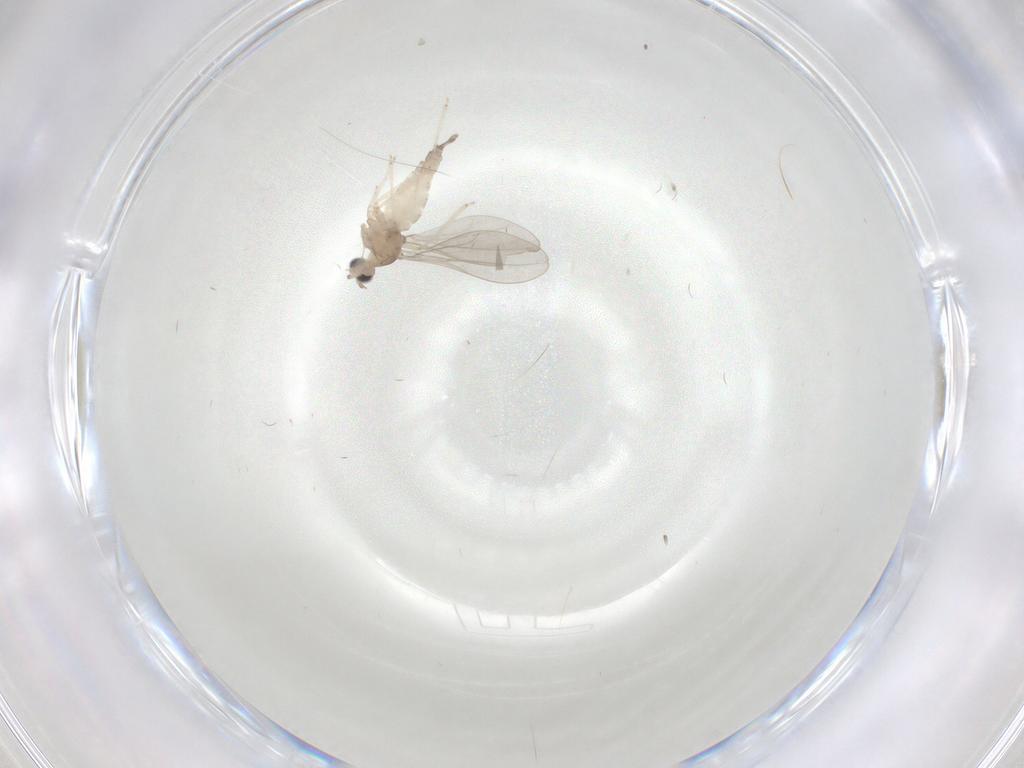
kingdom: Animalia
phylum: Arthropoda
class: Insecta
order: Diptera
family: Cecidomyiidae
